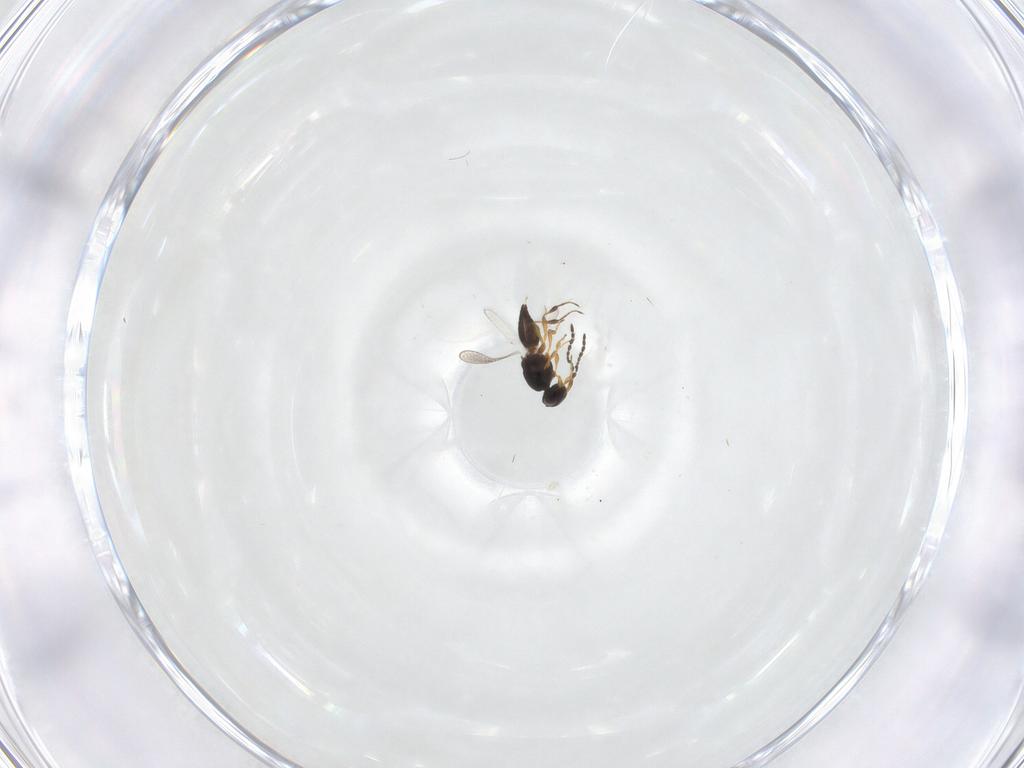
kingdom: Animalia
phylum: Arthropoda
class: Insecta
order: Hymenoptera
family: Platygastridae
